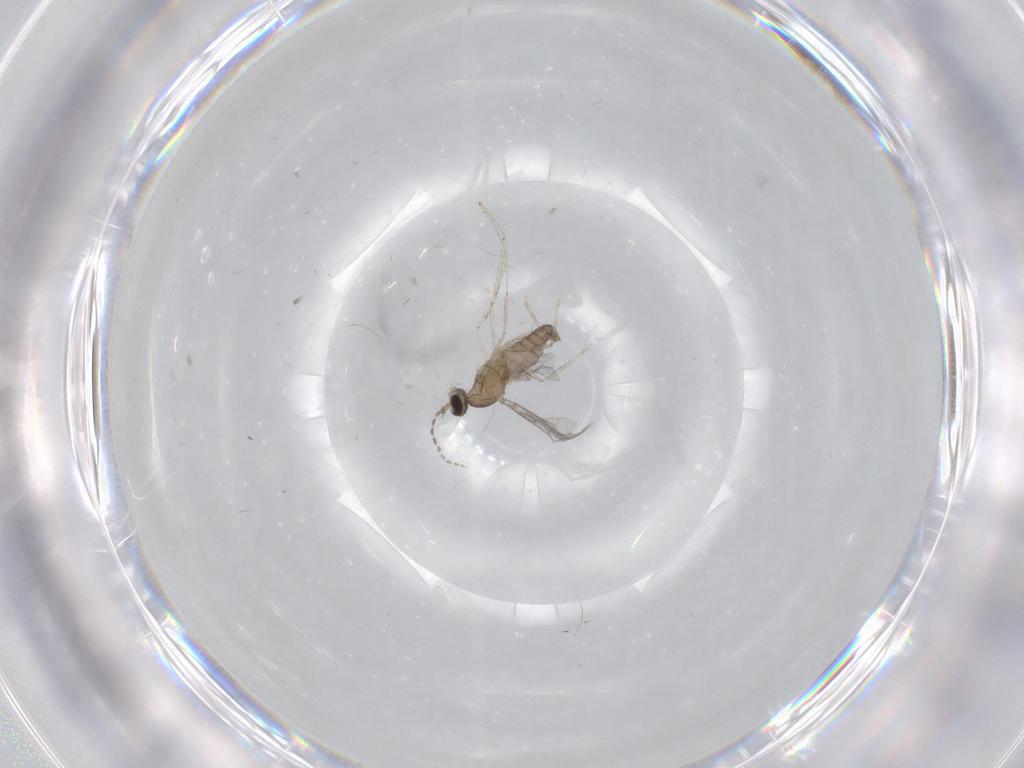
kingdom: Animalia
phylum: Arthropoda
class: Insecta
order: Diptera
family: Cecidomyiidae
